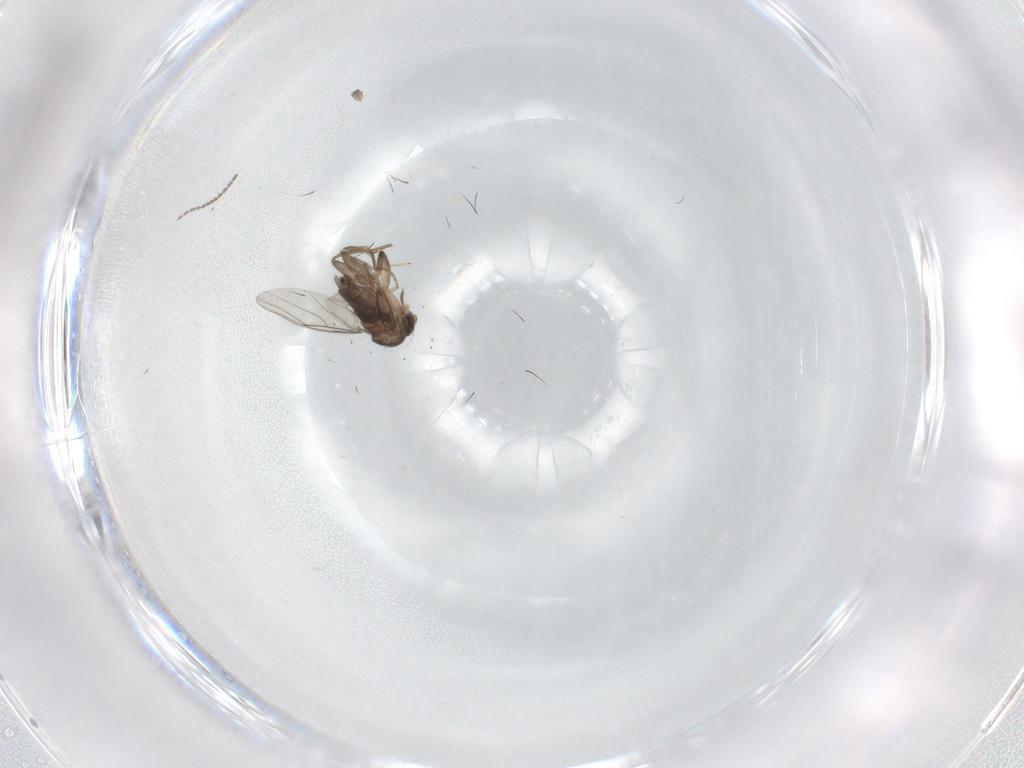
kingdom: Animalia
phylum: Arthropoda
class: Insecta
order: Diptera
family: Phoridae
